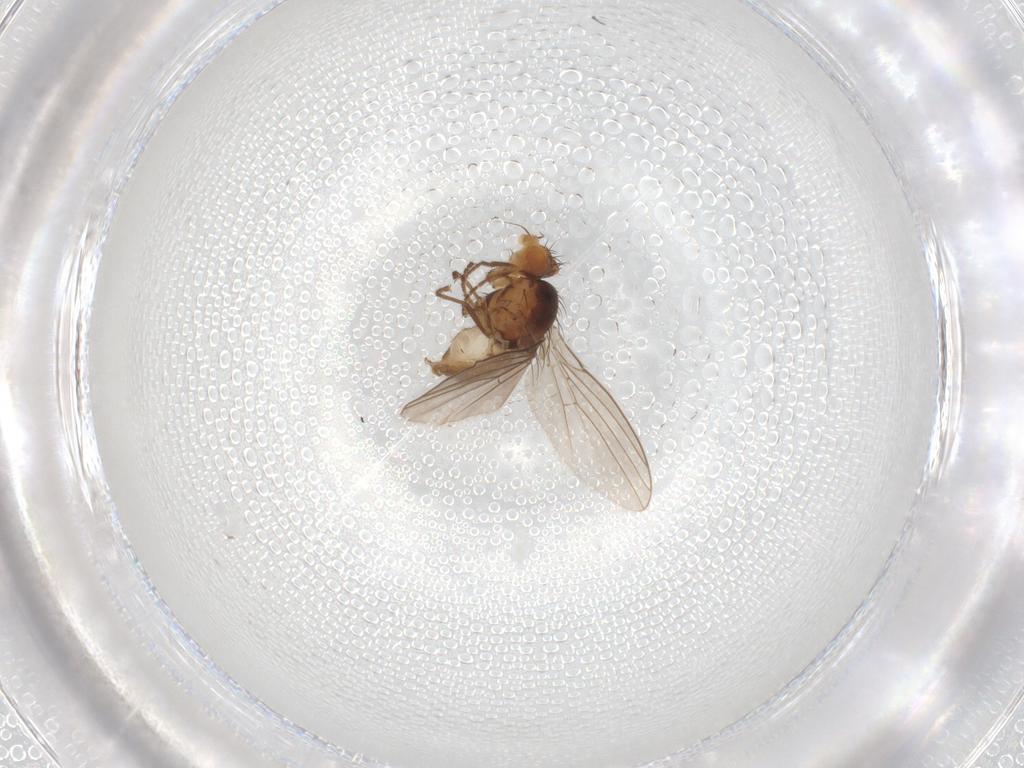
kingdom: Animalia
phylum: Arthropoda
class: Insecta
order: Diptera
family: Agromyzidae
